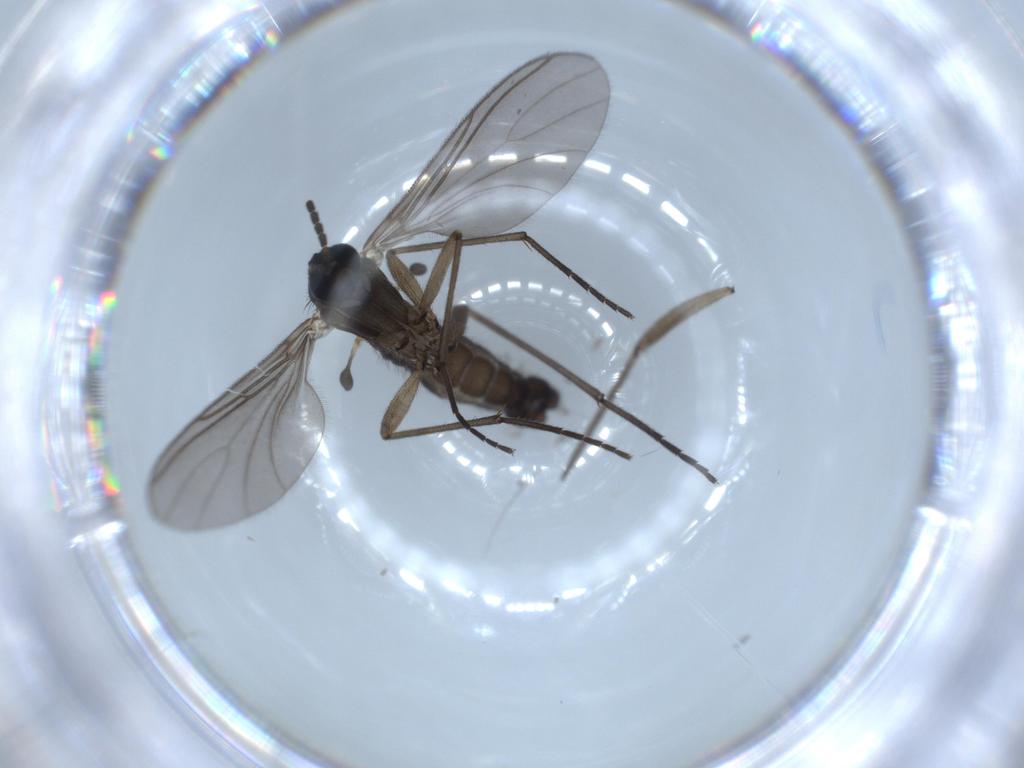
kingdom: Animalia
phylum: Arthropoda
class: Insecta
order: Diptera
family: Sciaridae
